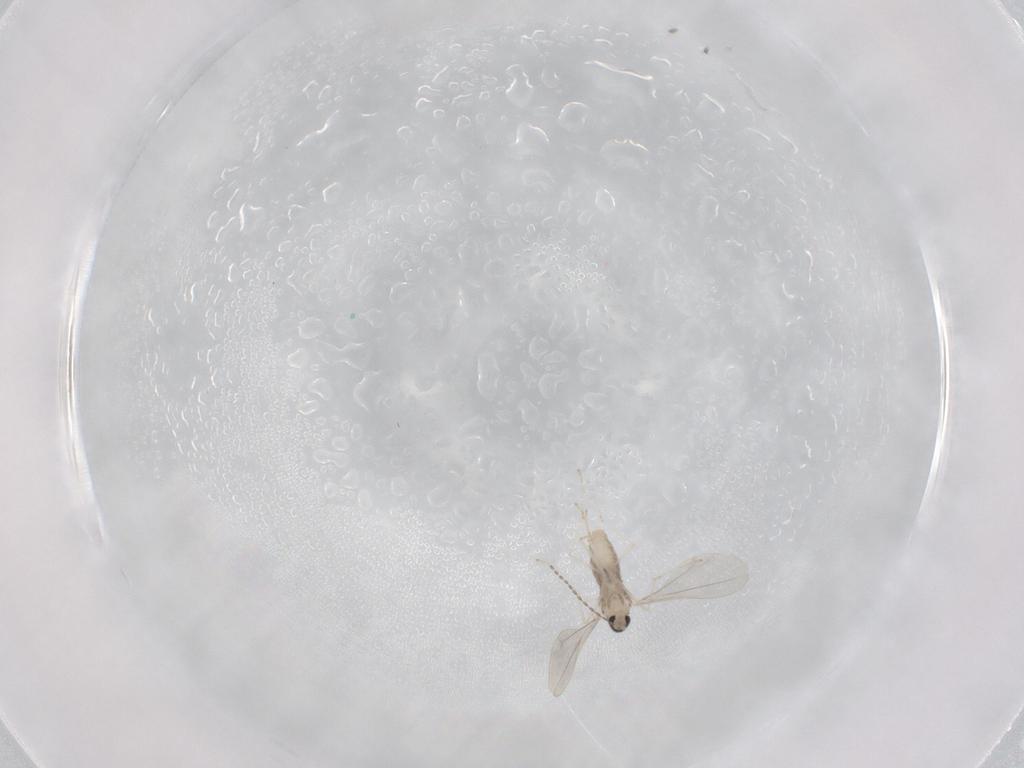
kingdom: Animalia
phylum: Arthropoda
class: Insecta
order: Diptera
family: Cecidomyiidae
